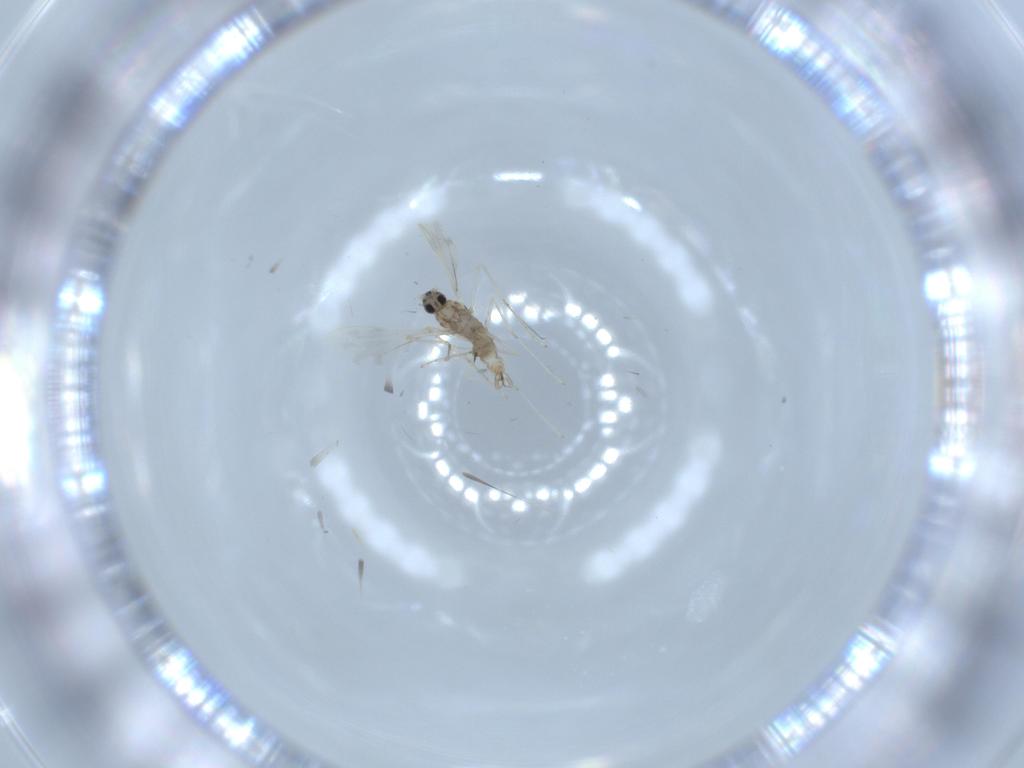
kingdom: Animalia
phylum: Arthropoda
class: Insecta
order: Diptera
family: Cecidomyiidae
